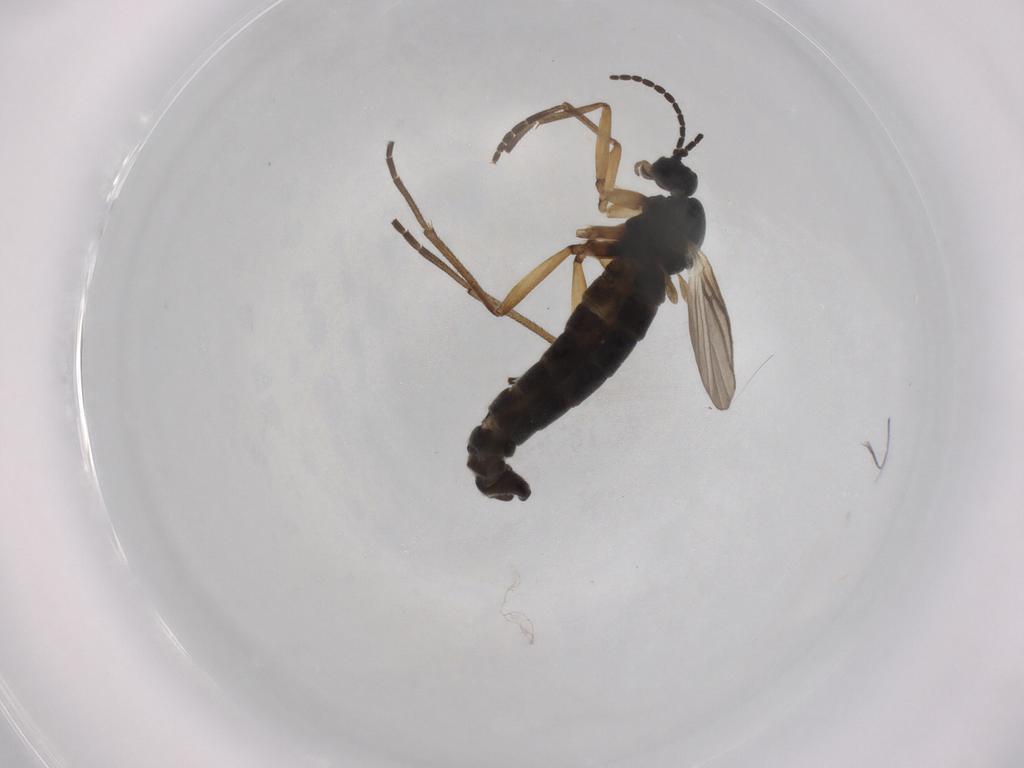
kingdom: Animalia
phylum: Arthropoda
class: Insecta
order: Diptera
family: Sciaridae
